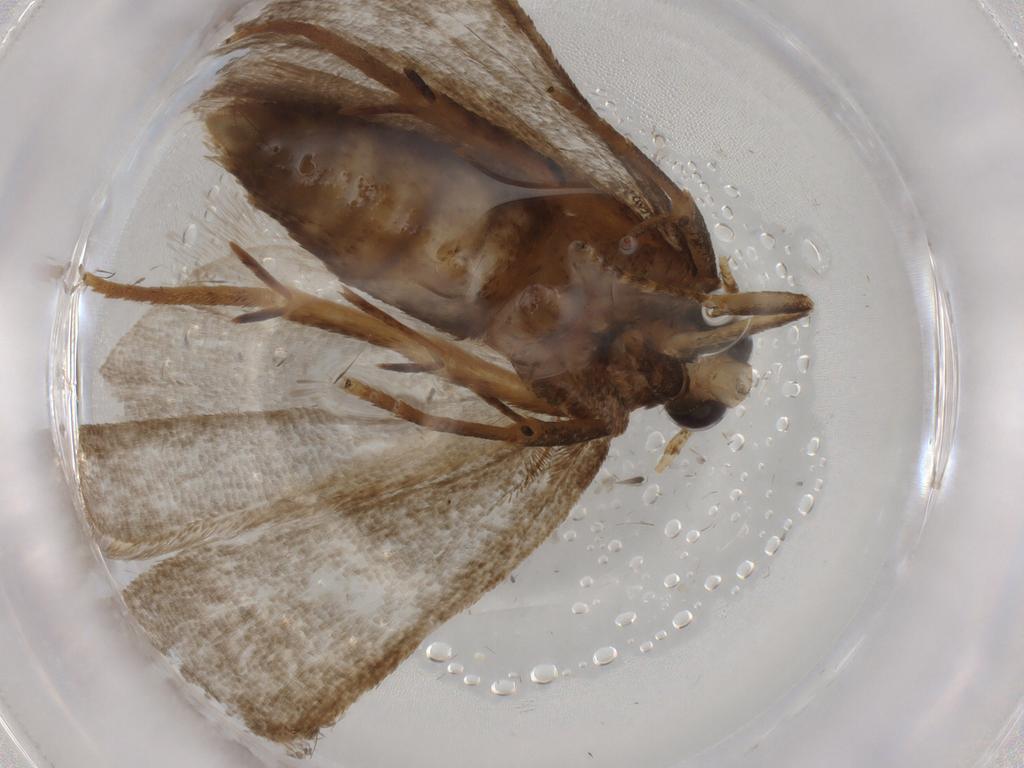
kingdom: Animalia
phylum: Arthropoda
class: Insecta
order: Lepidoptera
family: Autostichidae
